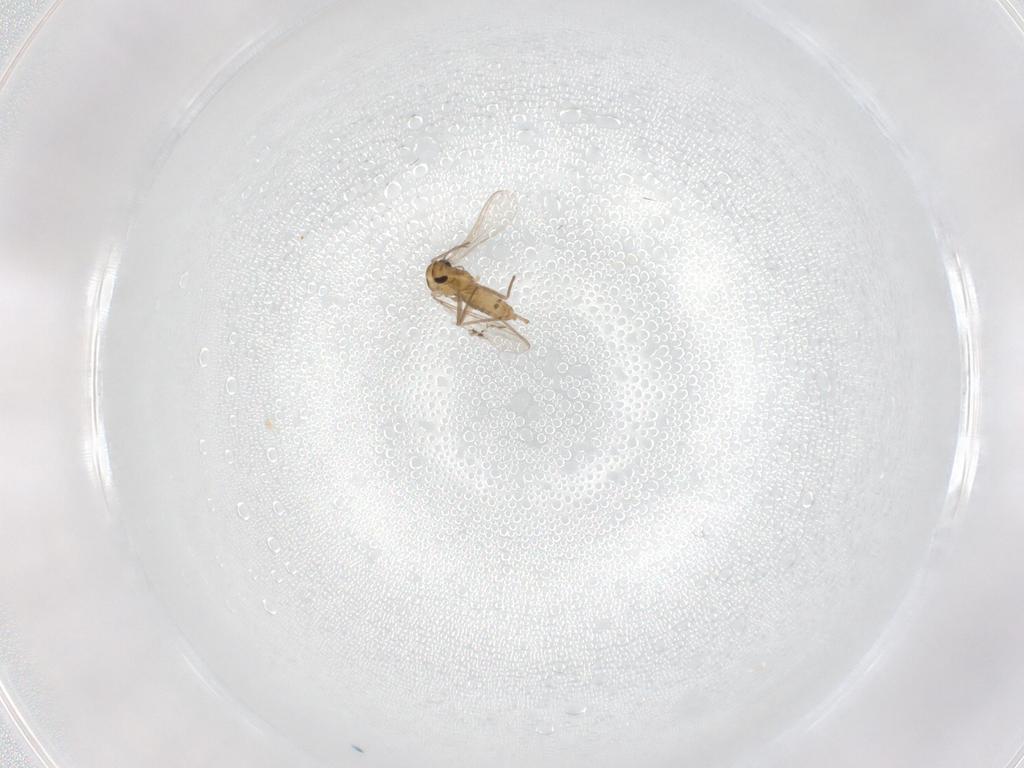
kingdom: Animalia
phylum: Arthropoda
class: Insecta
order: Diptera
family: Chironomidae
